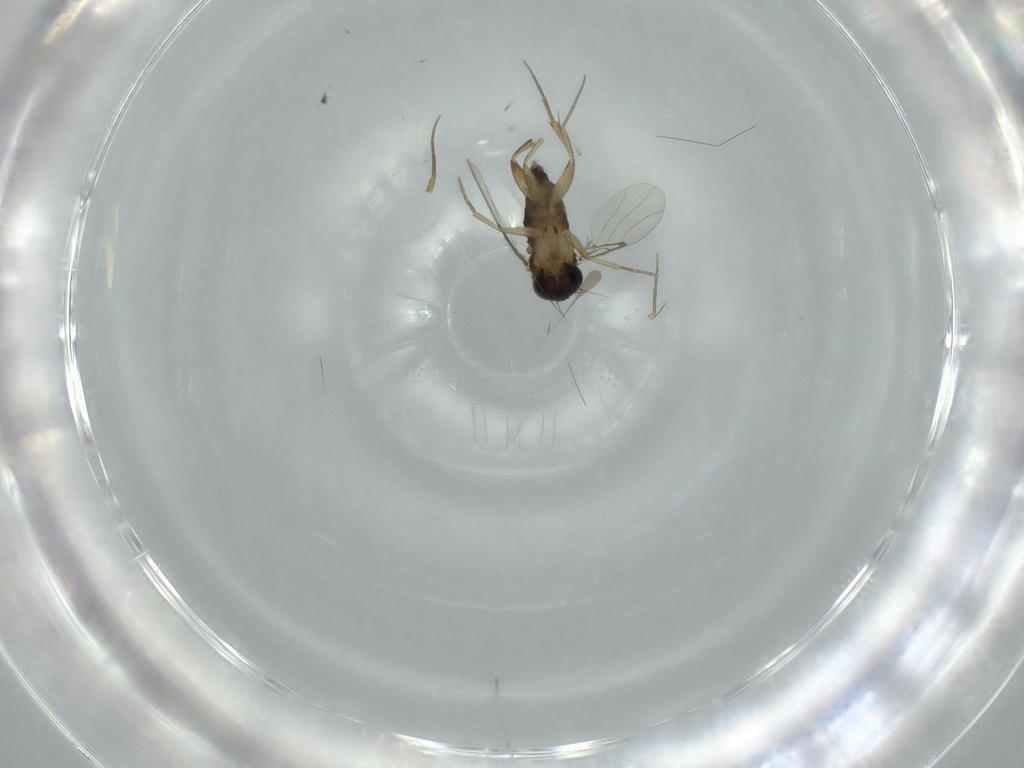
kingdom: Animalia
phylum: Arthropoda
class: Insecta
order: Diptera
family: Phoridae
